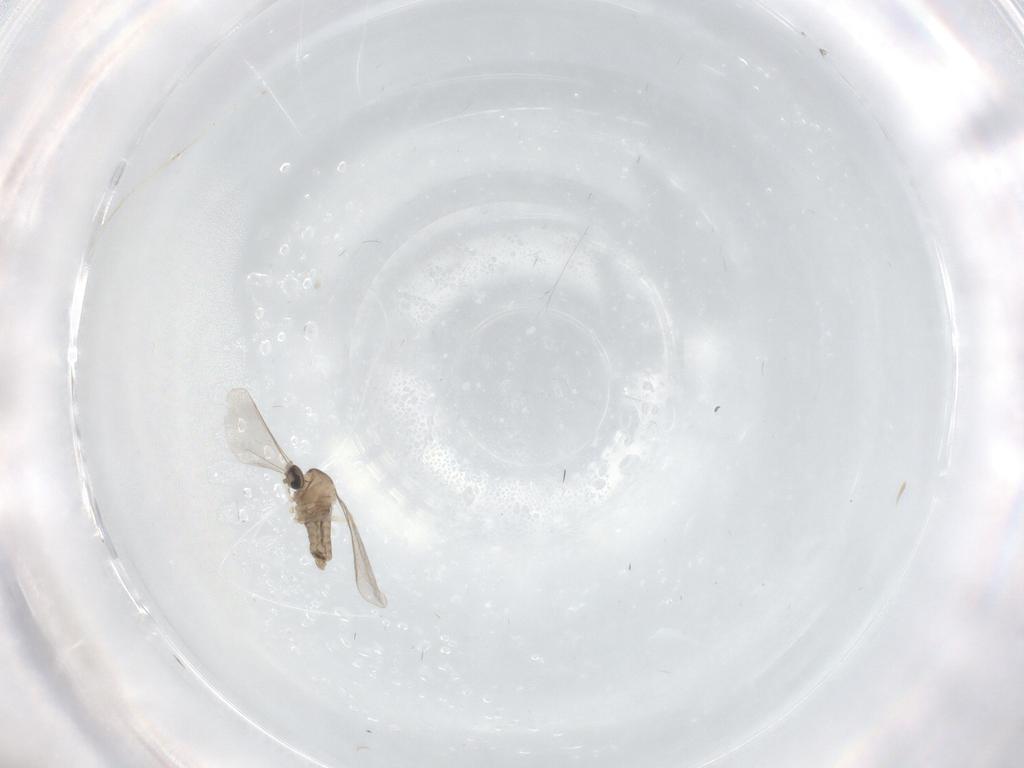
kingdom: Animalia
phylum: Arthropoda
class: Insecta
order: Diptera
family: Cecidomyiidae
